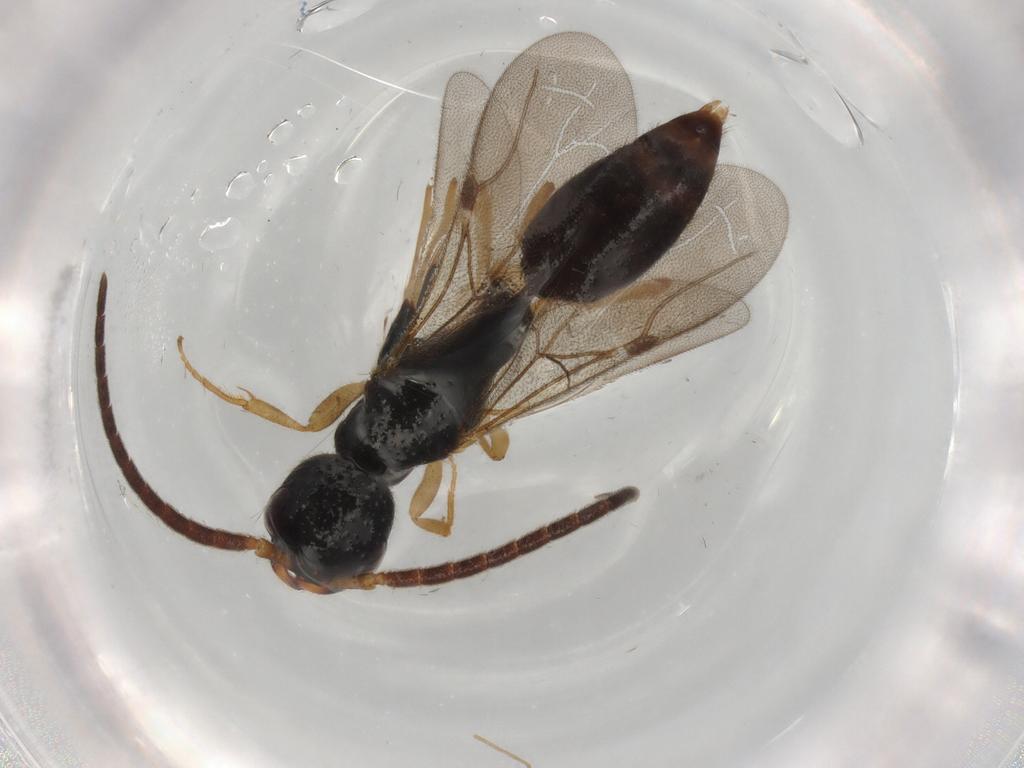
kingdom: Animalia
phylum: Arthropoda
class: Insecta
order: Hymenoptera
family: Bethylidae
